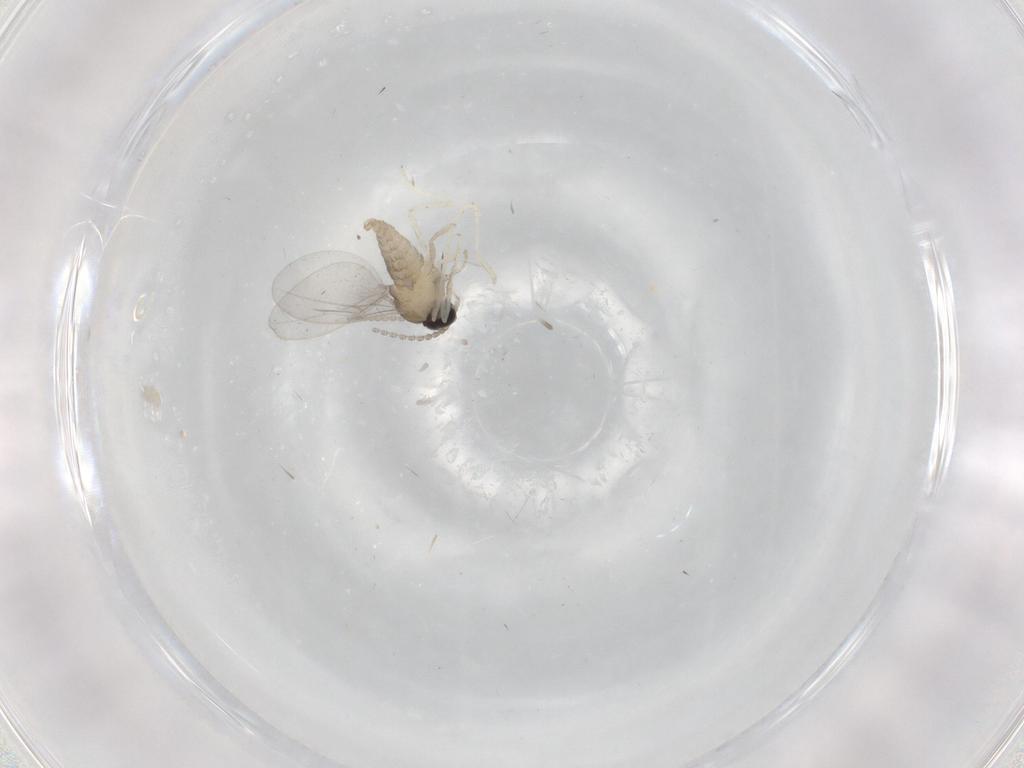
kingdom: Animalia
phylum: Arthropoda
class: Insecta
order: Diptera
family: Cecidomyiidae
